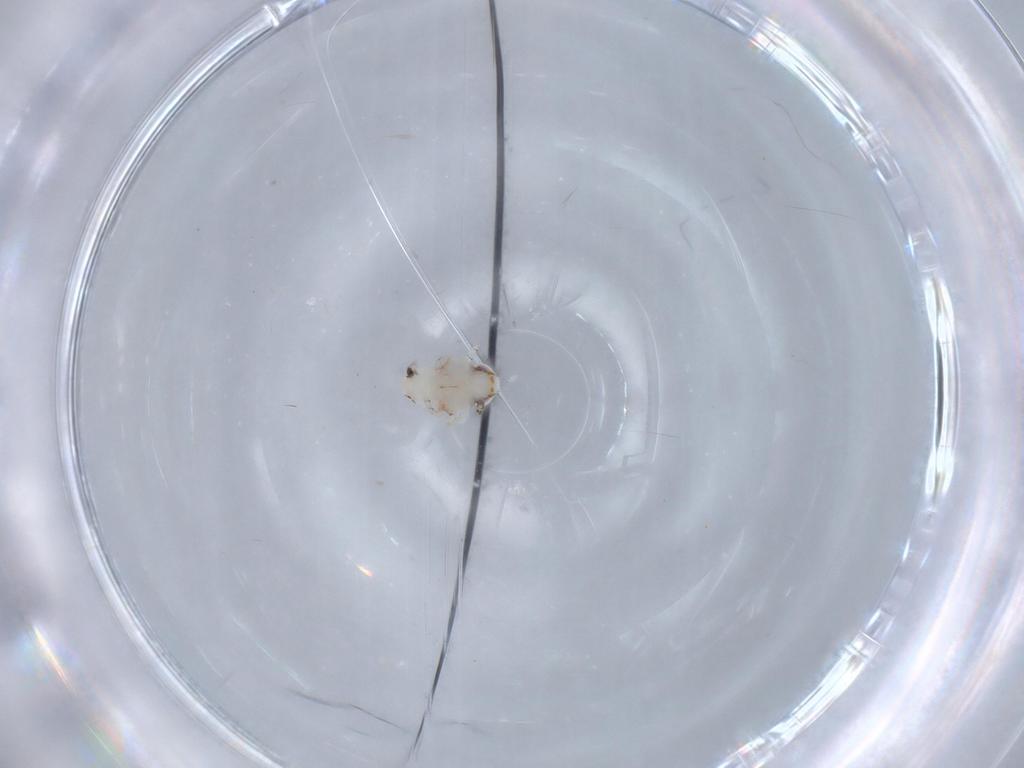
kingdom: Animalia
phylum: Arthropoda
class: Insecta
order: Hemiptera
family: Nogodinidae
